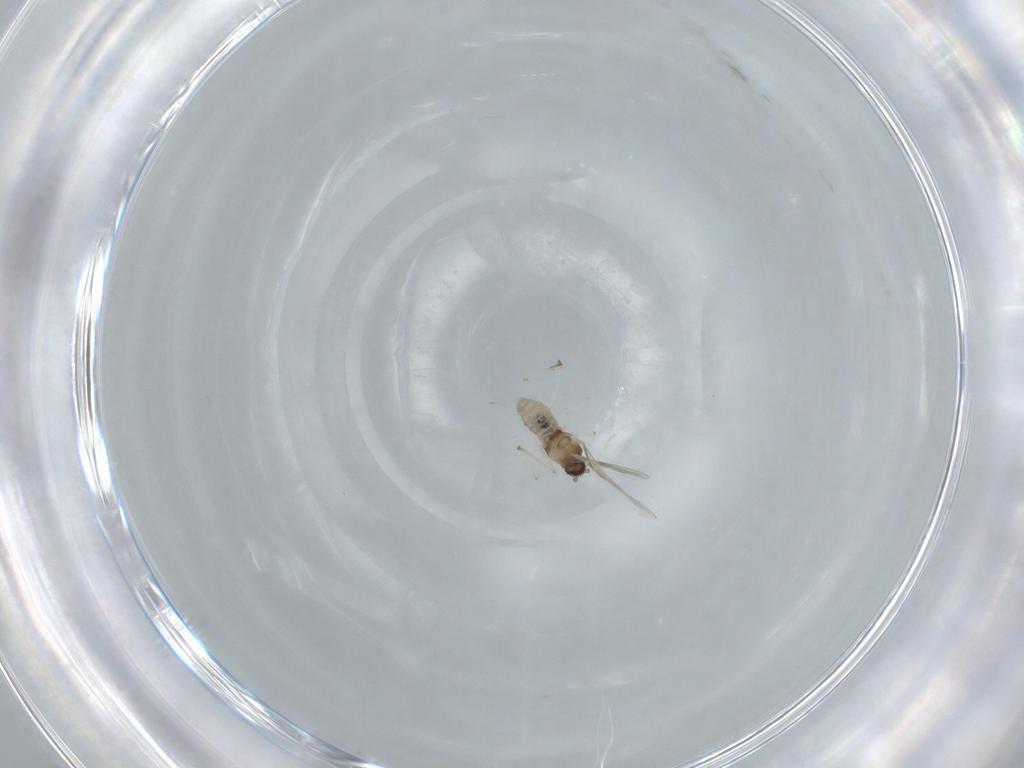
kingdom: Animalia
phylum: Arthropoda
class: Insecta
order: Diptera
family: Cecidomyiidae
